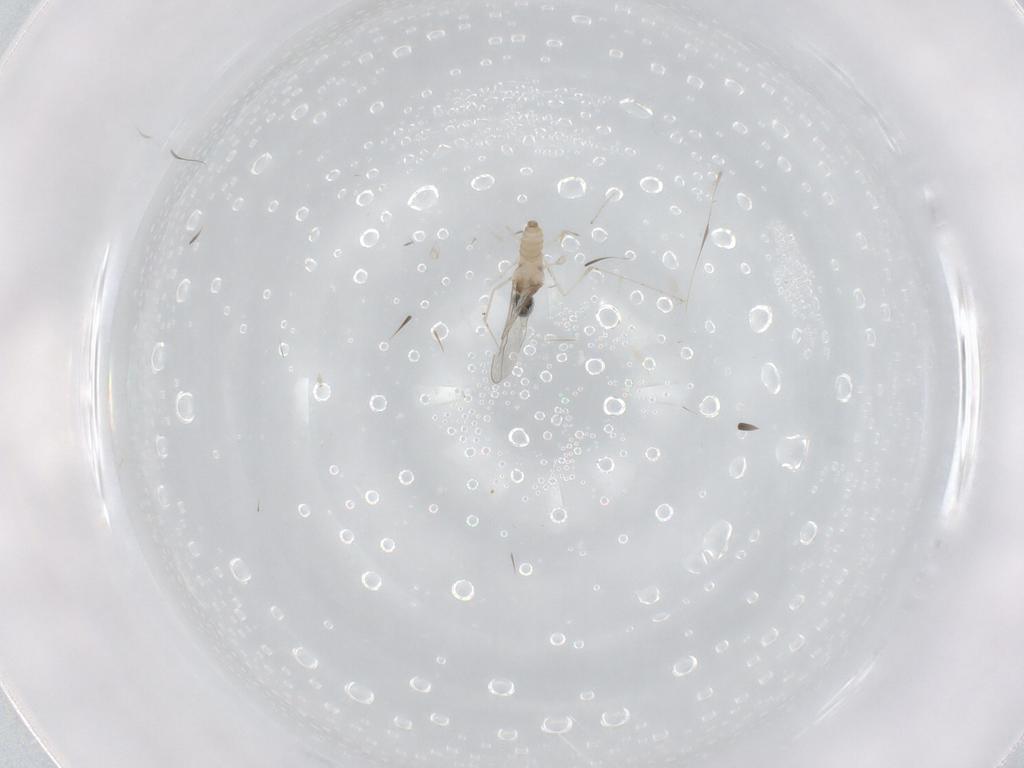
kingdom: Animalia
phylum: Arthropoda
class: Insecta
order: Diptera
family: Cecidomyiidae
